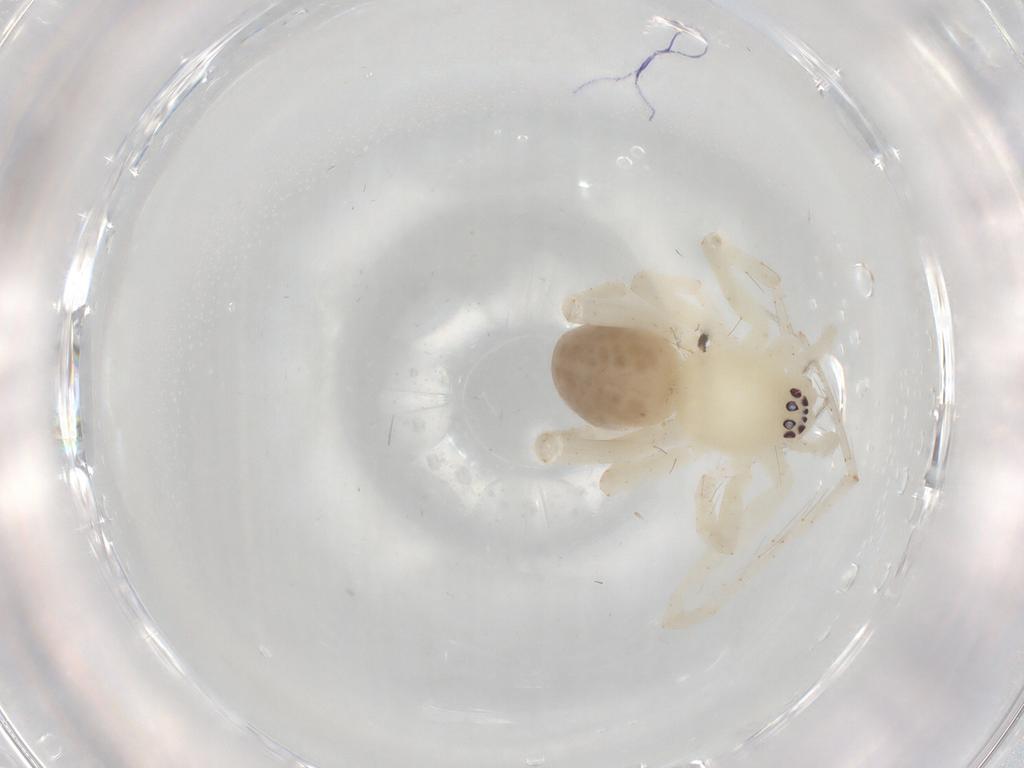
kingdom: Animalia
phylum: Arthropoda
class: Arachnida
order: Araneae
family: Anyphaenidae
